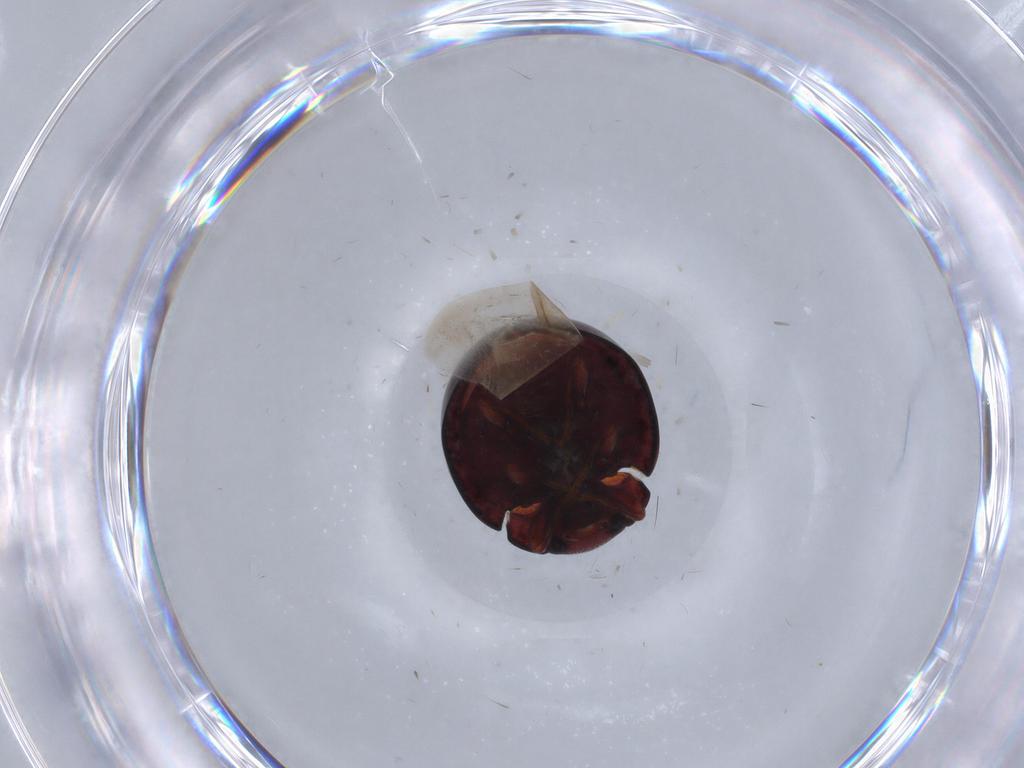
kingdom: Animalia
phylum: Arthropoda
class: Insecta
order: Coleoptera
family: Coccinellidae
